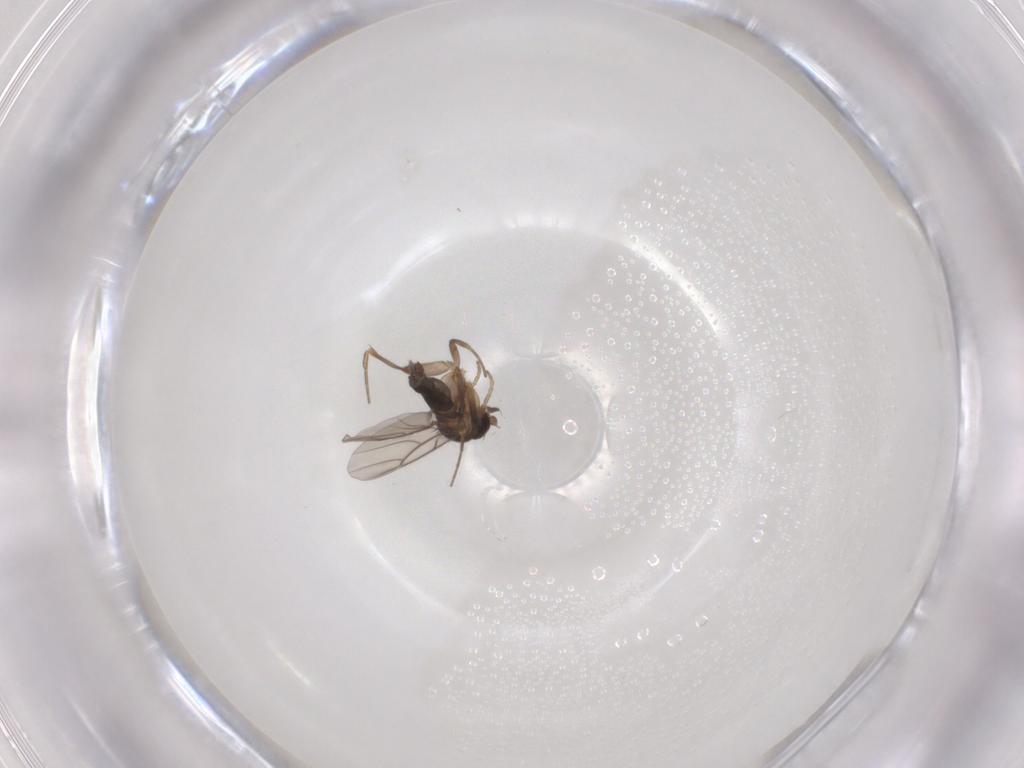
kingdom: Animalia
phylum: Arthropoda
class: Insecta
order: Diptera
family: Phoridae
